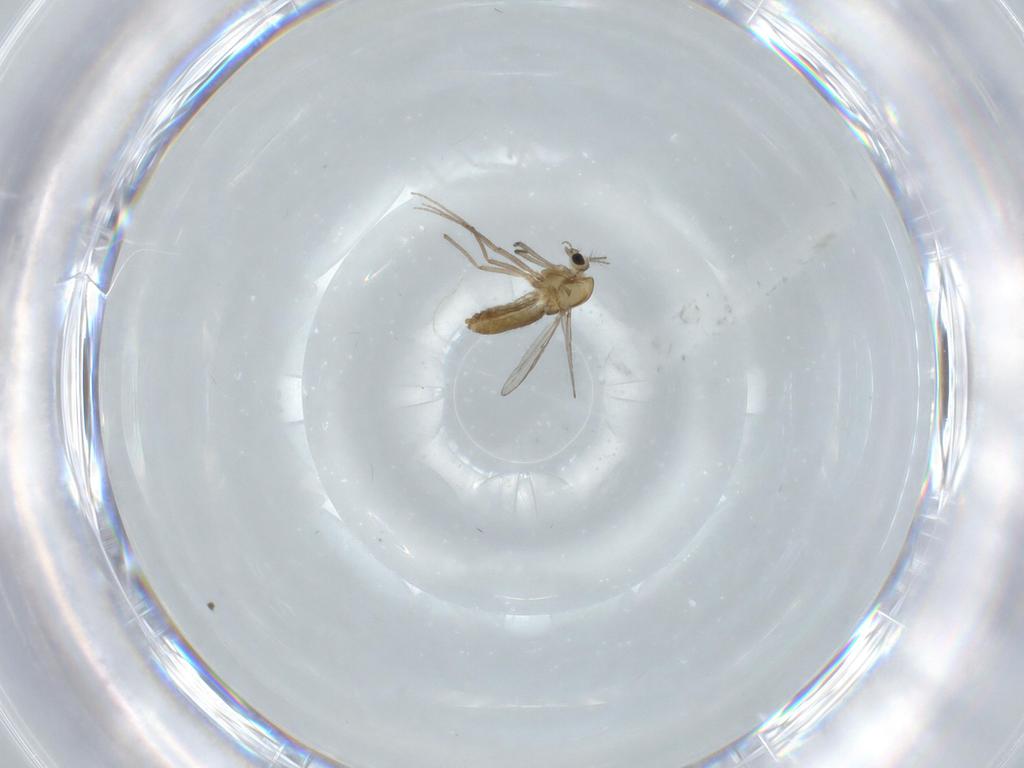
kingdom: Animalia
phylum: Arthropoda
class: Insecta
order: Diptera
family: Chironomidae
